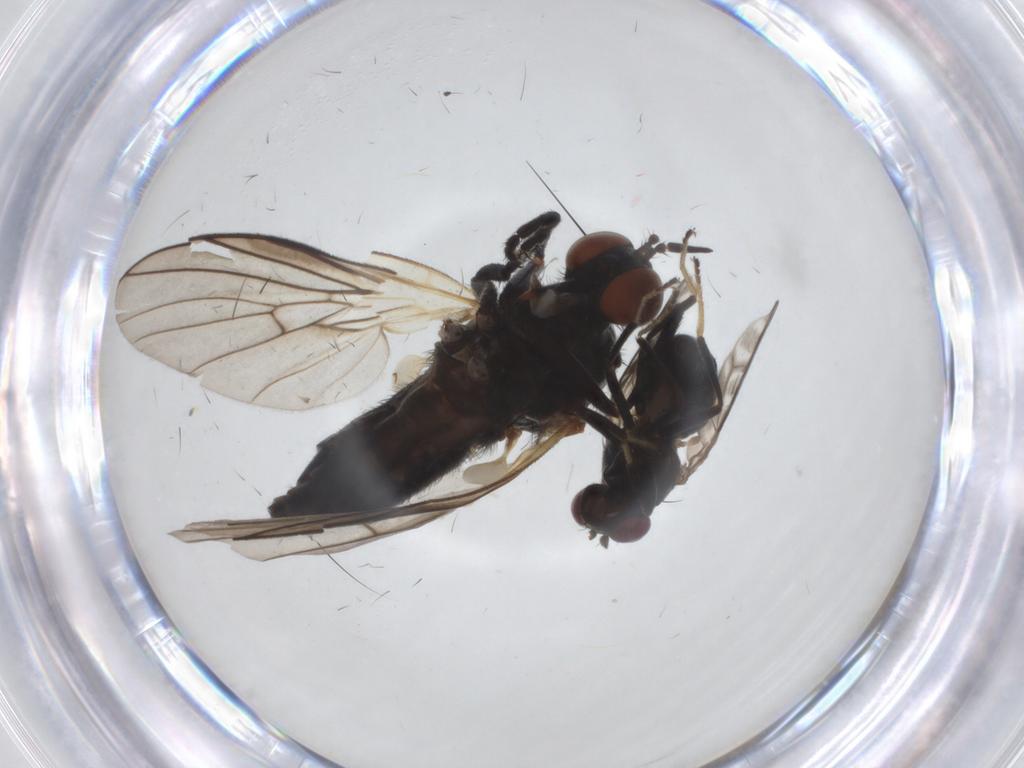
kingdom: Animalia
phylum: Arthropoda
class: Insecta
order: Diptera
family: Ephydridae
